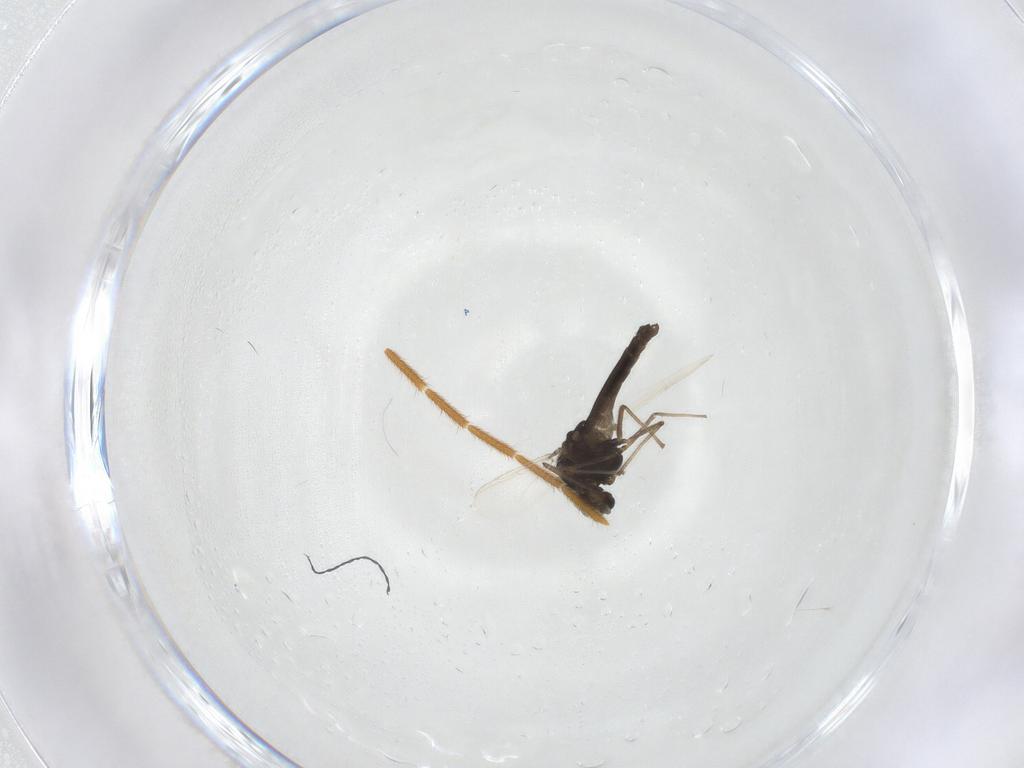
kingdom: Animalia
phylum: Arthropoda
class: Insecta
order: Diptera
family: Chironomidae
